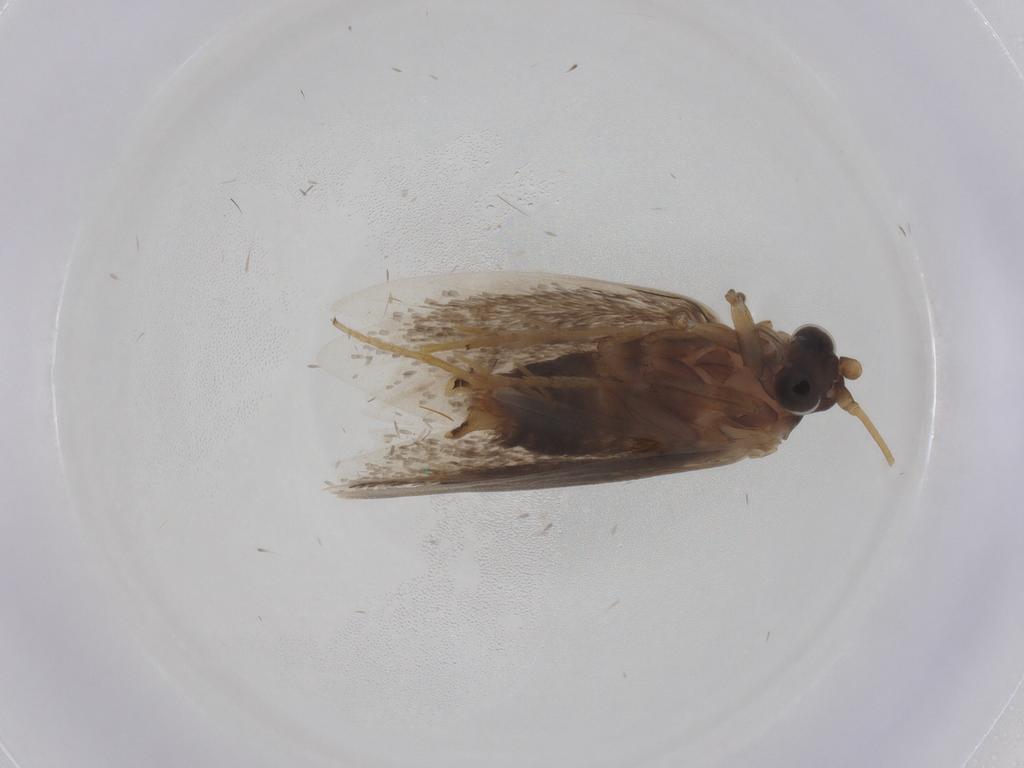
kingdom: Animalia
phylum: Arthropoda
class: Insecta
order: Lepidoptera
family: Adelidae
